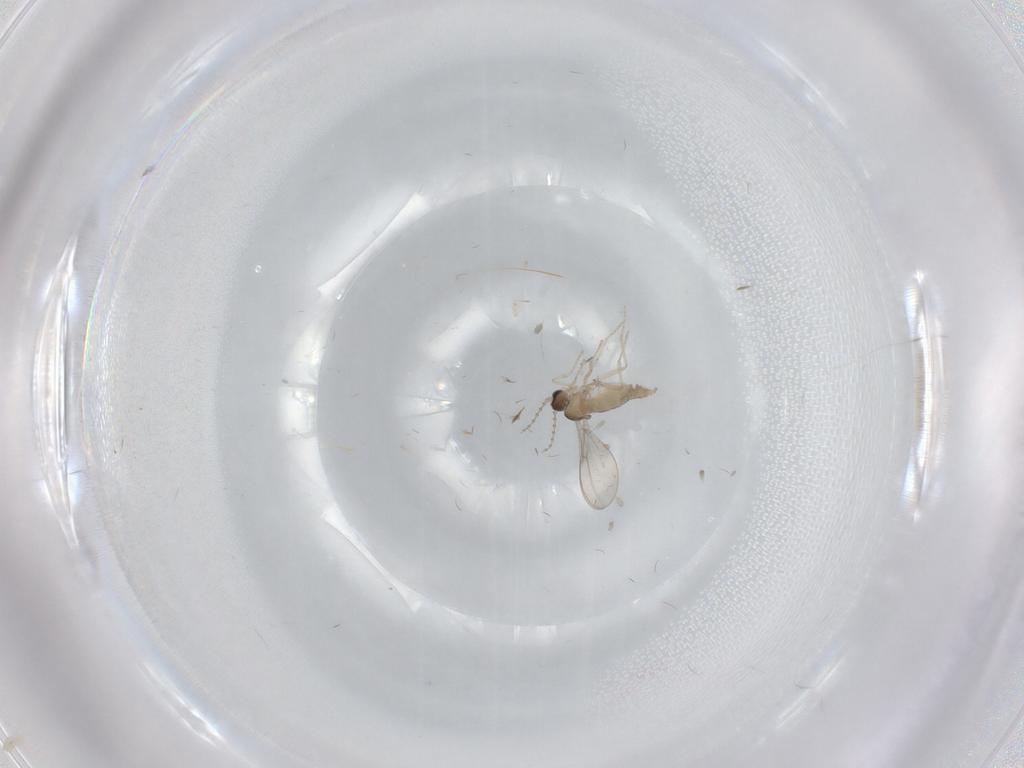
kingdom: Animalia
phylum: Arthropoda
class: Insecta
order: Diptera
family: Cecidomyiidae
